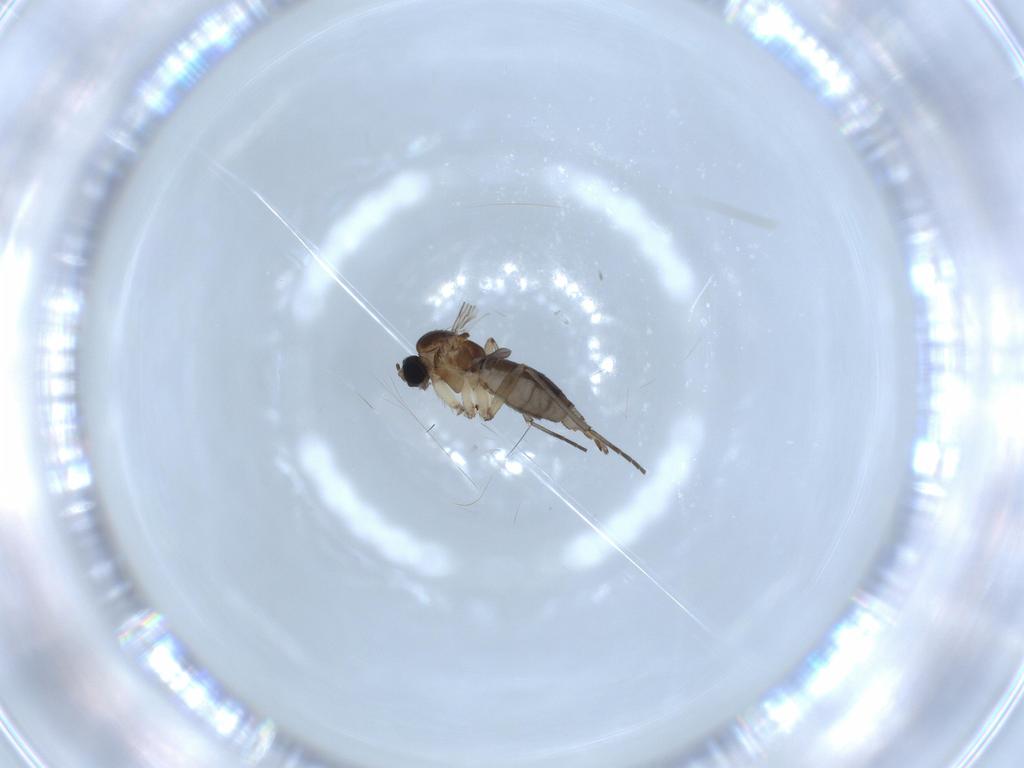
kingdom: Animalia
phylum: Arthropoda
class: Insecta
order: Diptera
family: Sciaridae
